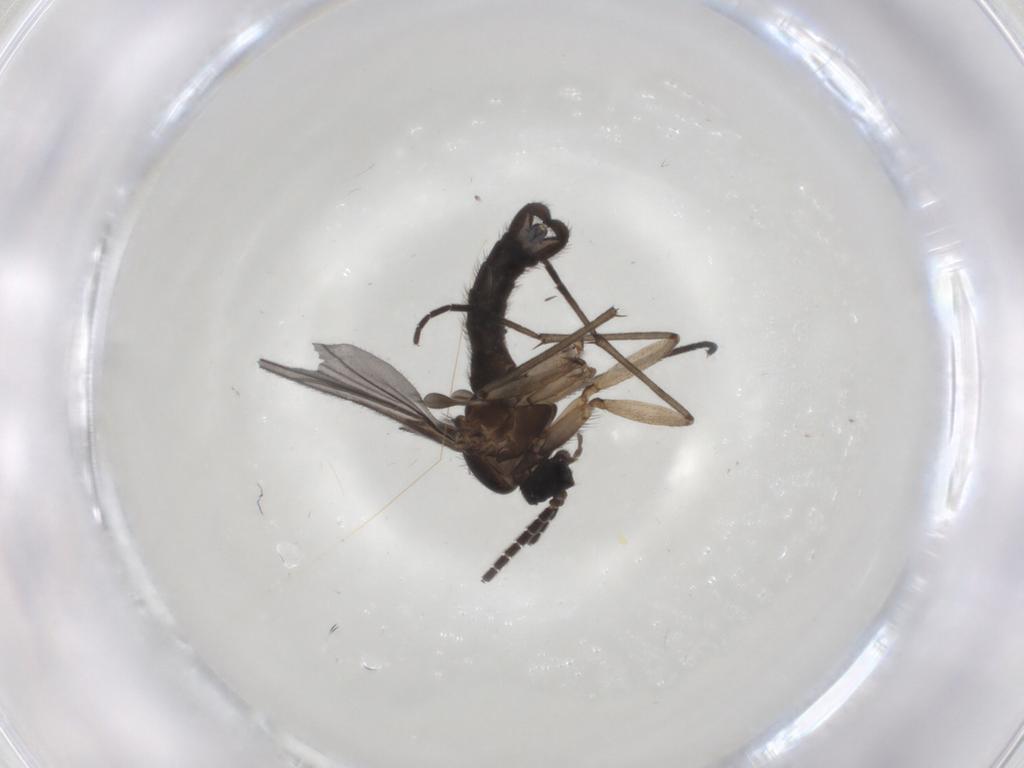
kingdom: Animalia
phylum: Arthropoda
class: Insecta
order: Diptera
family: Sciaridae
